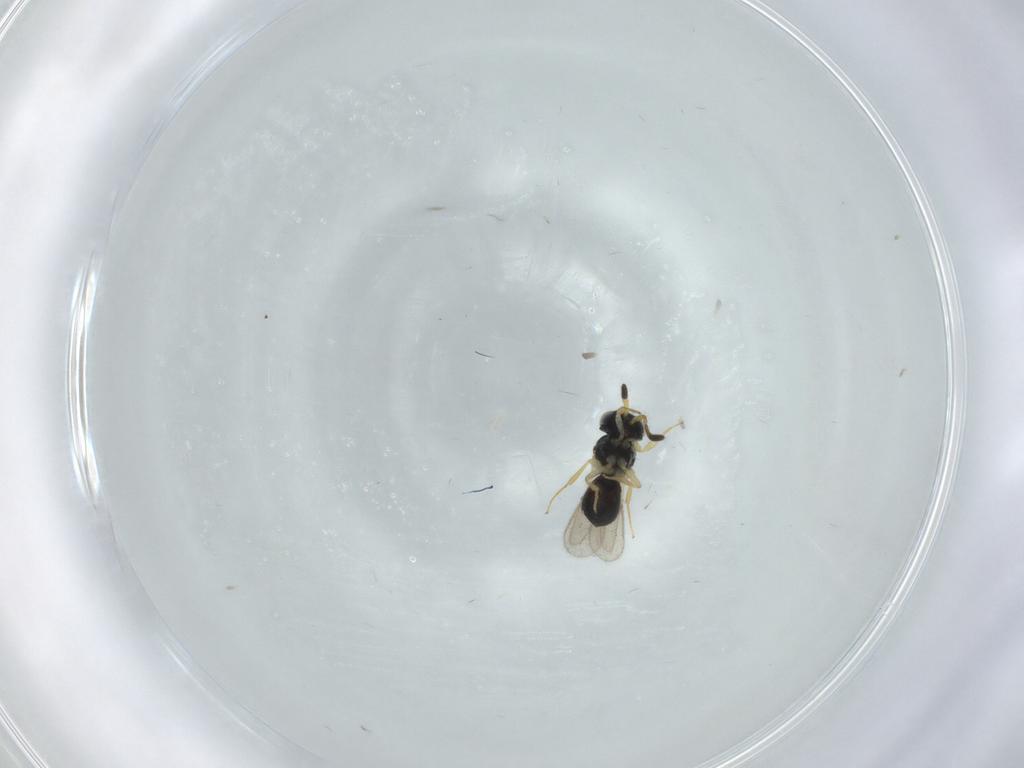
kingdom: Animalia
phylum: Arthropoda
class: Insecta
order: Hymenoptera
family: Scelionidae
